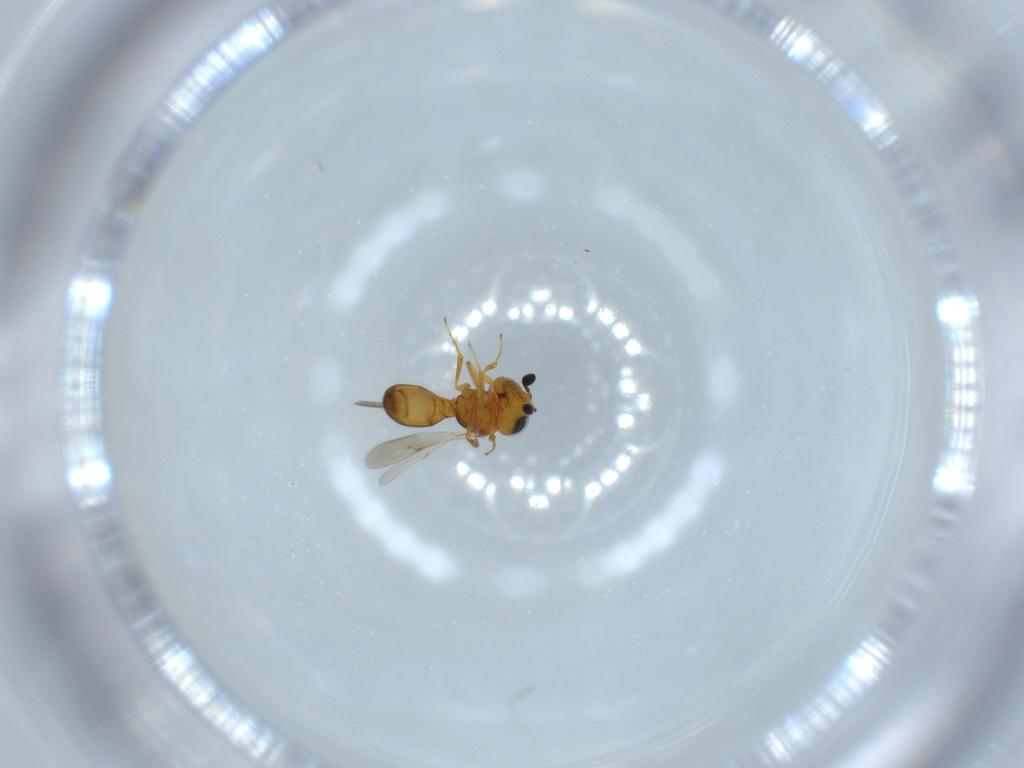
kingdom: Animalia
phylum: Arthropoda
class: Insecta
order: Hymenoptera
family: Scelionidae
